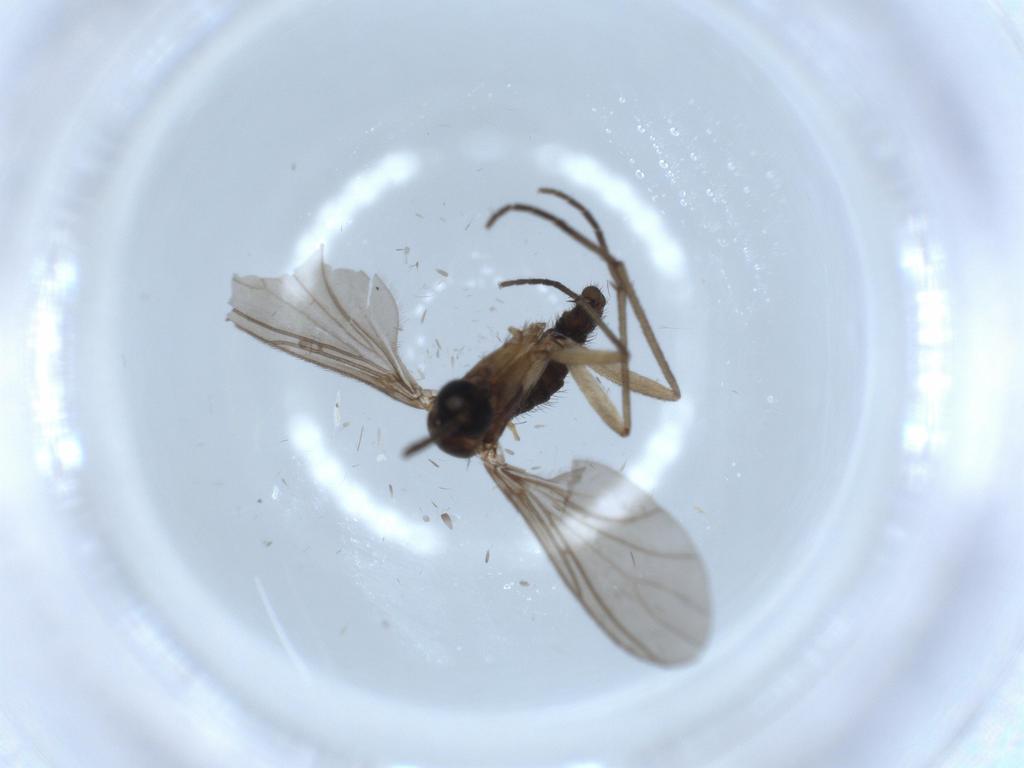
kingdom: Animalia
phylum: Arthropoda
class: Insecta
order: Diptera
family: Sciaridae
